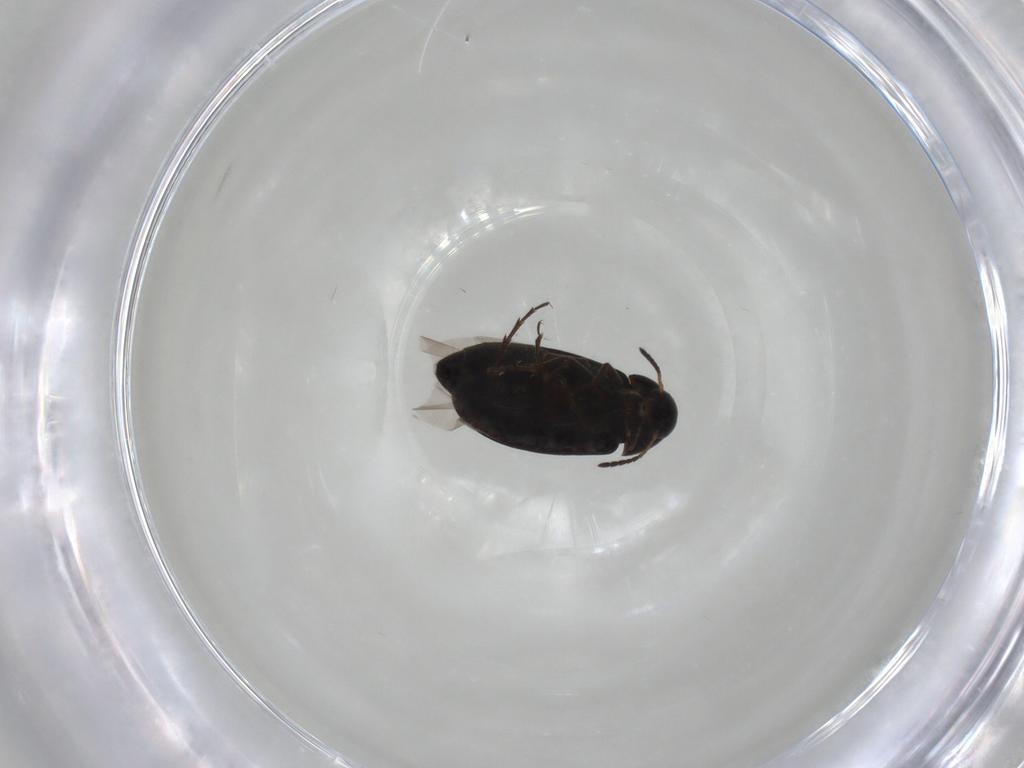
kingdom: Animalia
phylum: Arthropoda
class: Insecta
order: Coleoptera
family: Scraptiidae
